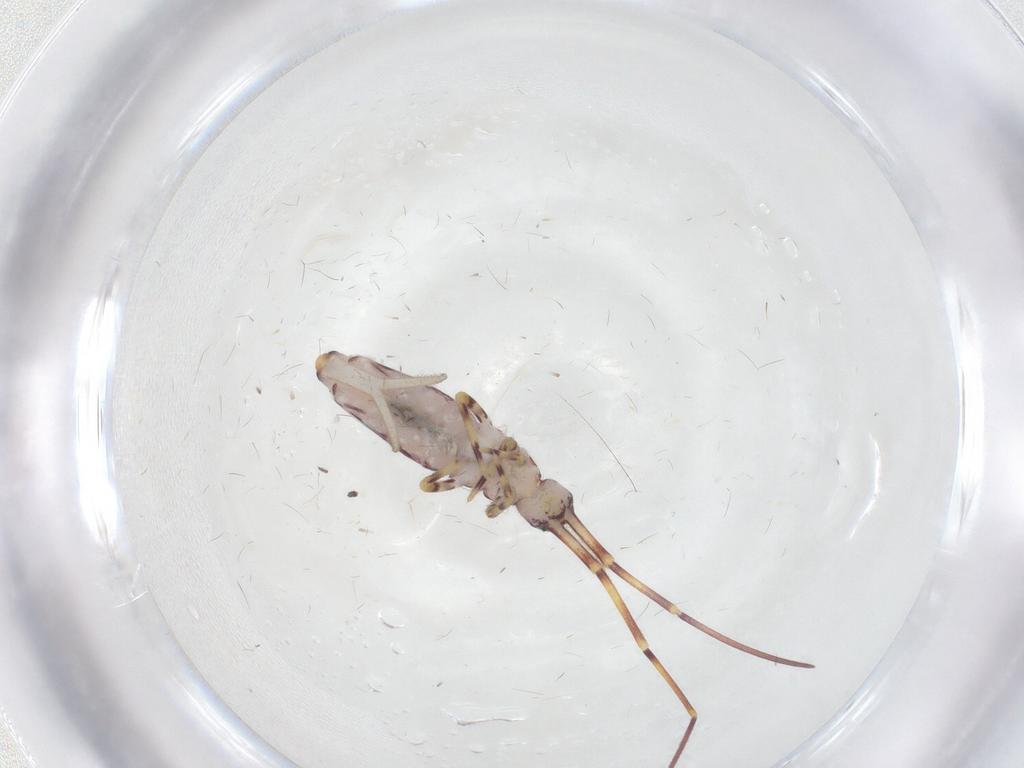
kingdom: Animalia
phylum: Arthropoda
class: Collembola
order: Entomobryomorpha
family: Entomobryidae
